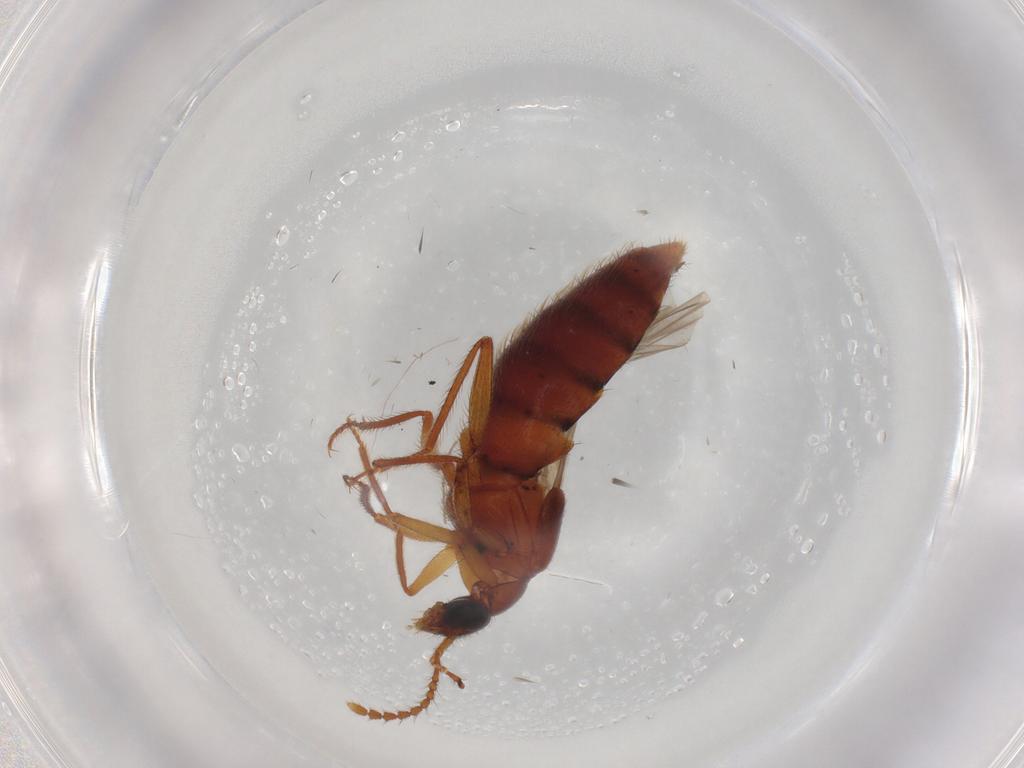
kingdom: Animalia
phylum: Arthropoda
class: Insecta
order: Coleoptera
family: Staphylinidae
